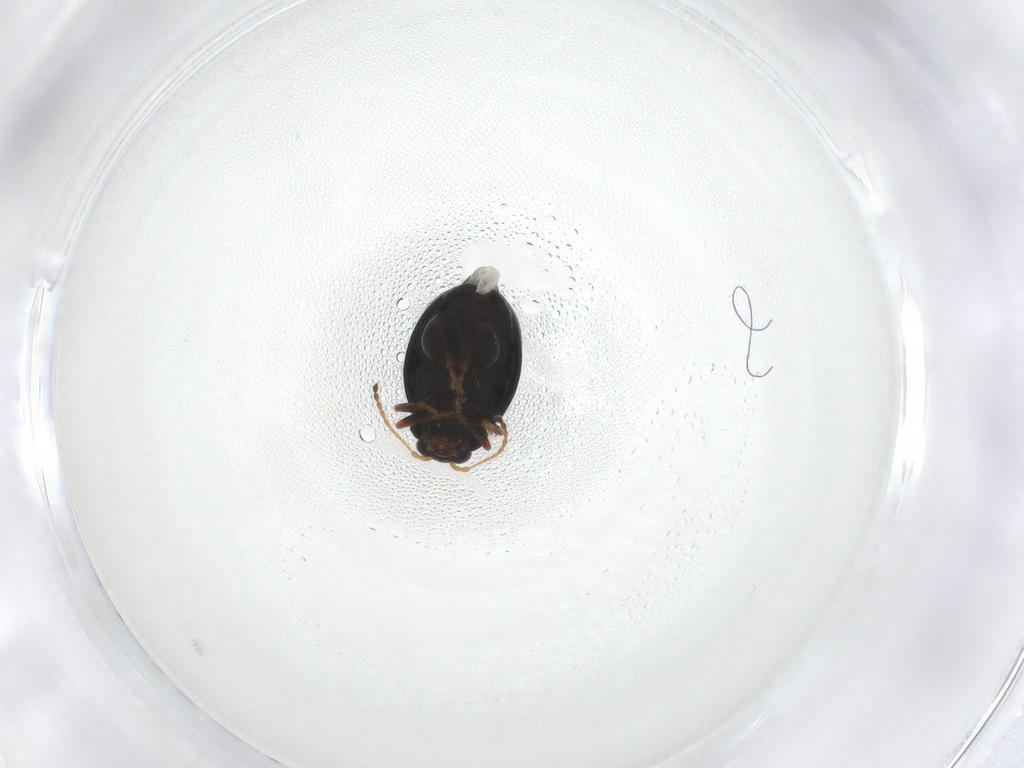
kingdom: Animalia
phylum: Arthropoda
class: Insecta
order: Coleoptera
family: Chrysomelidae
